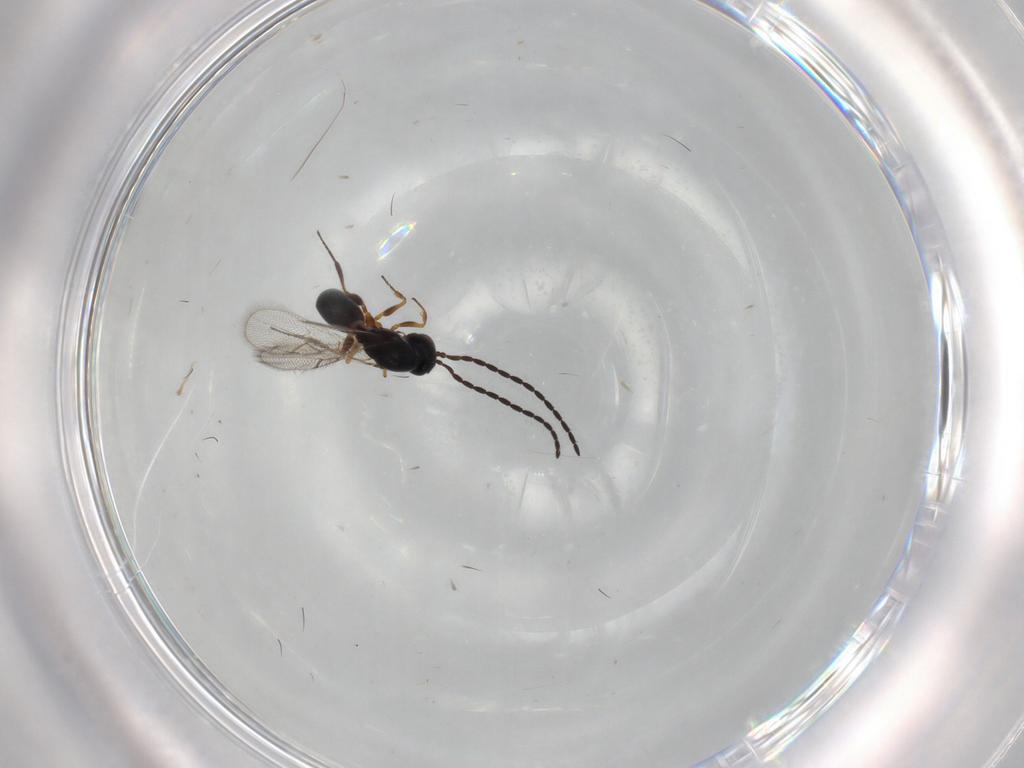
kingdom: Animalia
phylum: Arthropoda
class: Insecta
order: Hymenoptera
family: Figitidae
